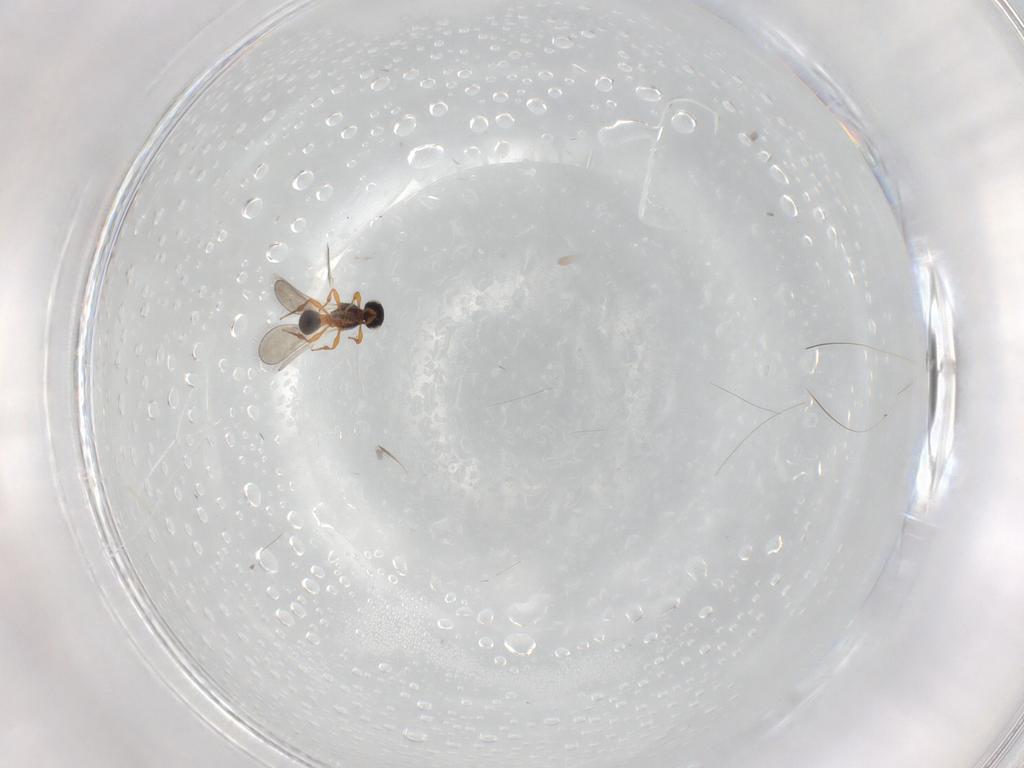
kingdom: Animalia
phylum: Arthropoda
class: Insecta
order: Hymenoptera
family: Platygastridae
